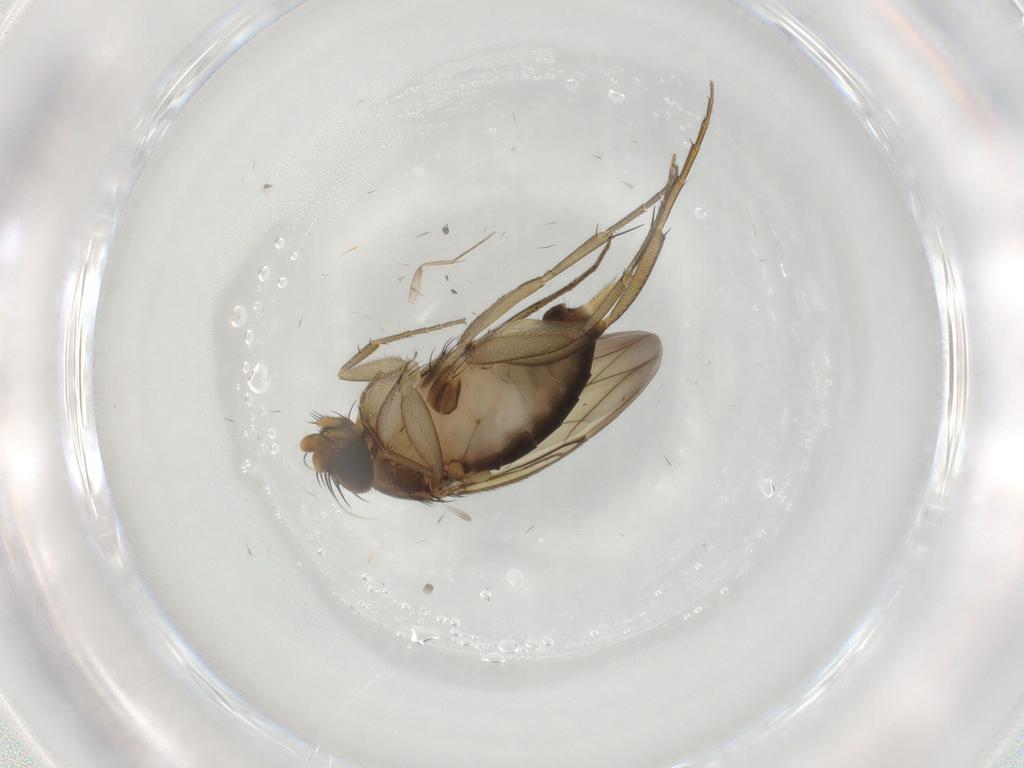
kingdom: Animalia
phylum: Arthropoda
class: Insecta
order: Diptera
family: Phoridae
